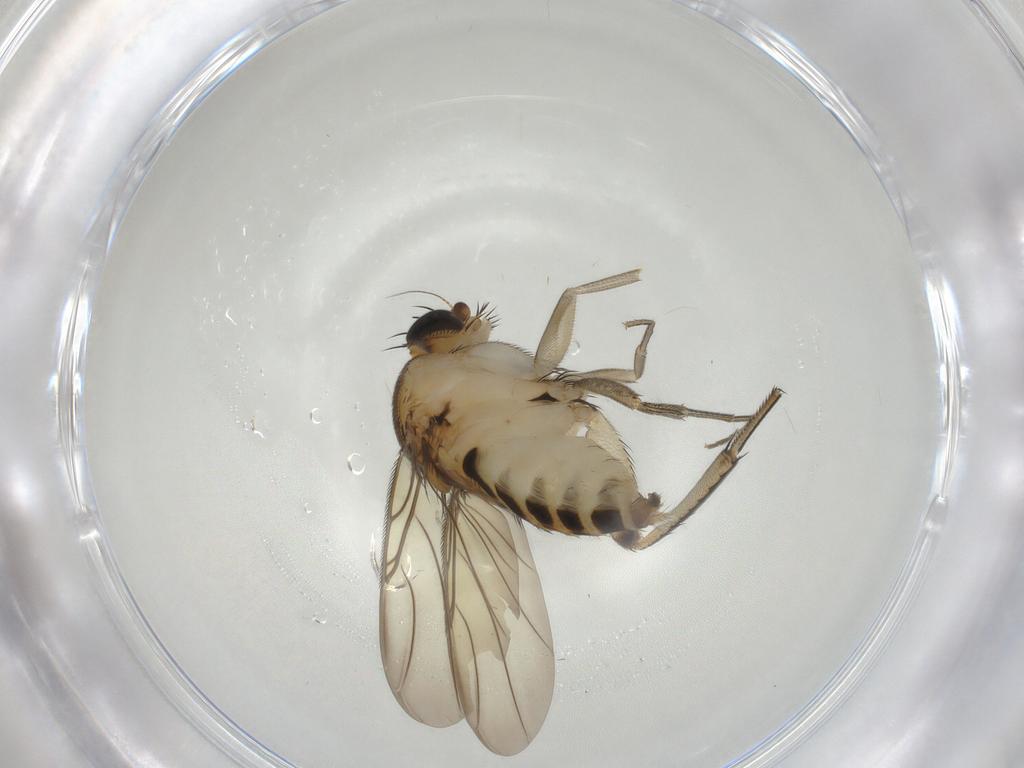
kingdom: Animalia
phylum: Arthropoda
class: Insecta
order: Diptera
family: Phoridae
